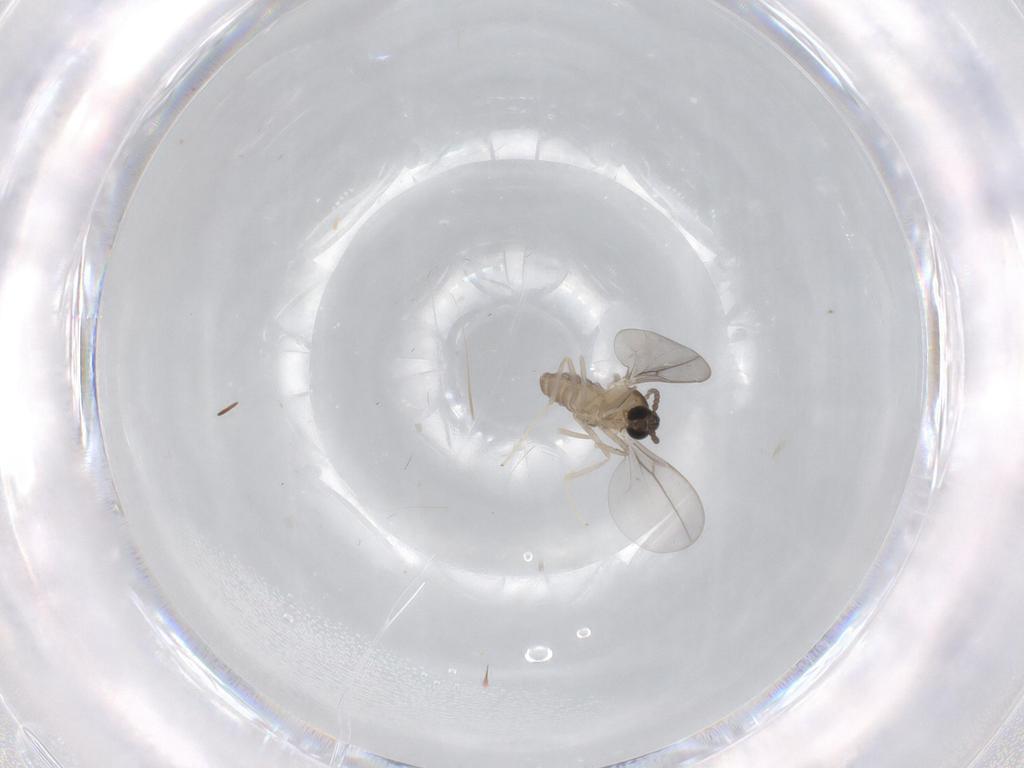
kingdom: Animalia
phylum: Arthropoda
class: Insecta
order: Diptera
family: Cecidomyiidae
